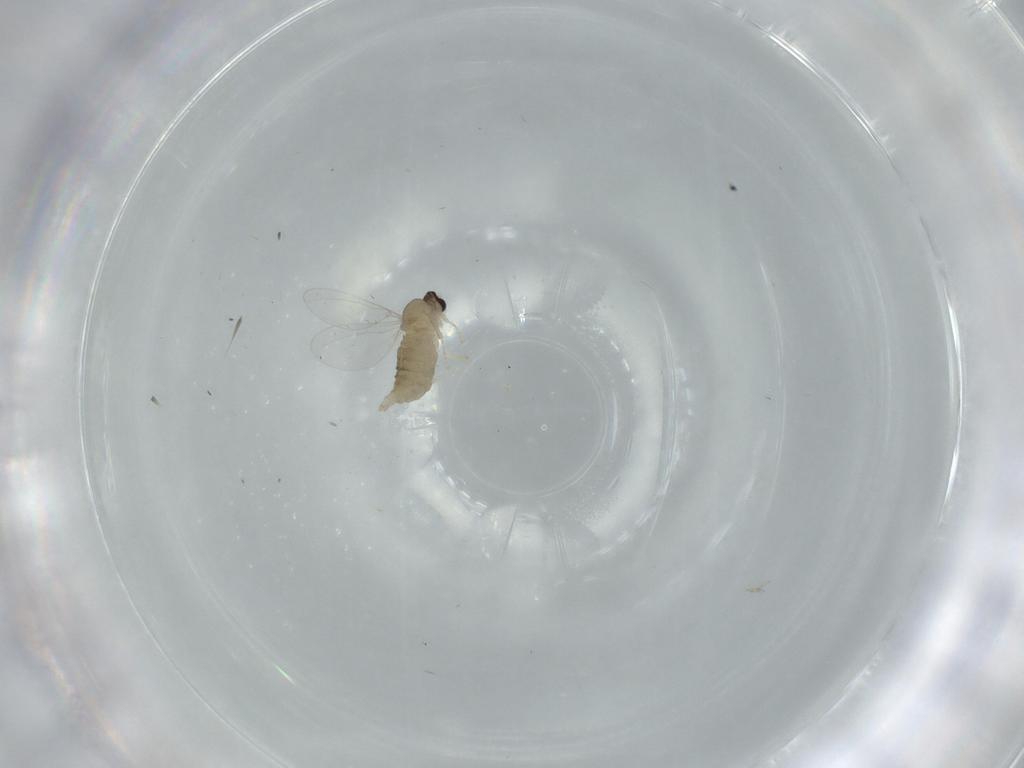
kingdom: Animalia
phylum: Arthropoda
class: Insecta
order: Diptera
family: Cecidomyiidae
